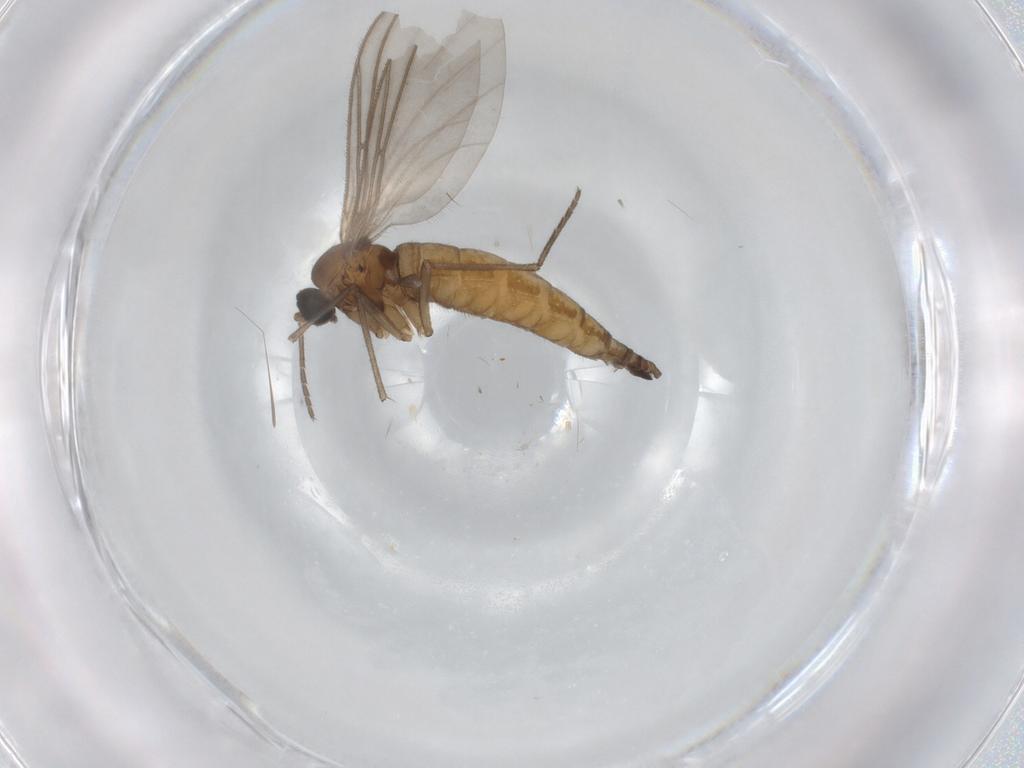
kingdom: Animalia
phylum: Arthropoda
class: Insecta
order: Diptera
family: Sciaridae
